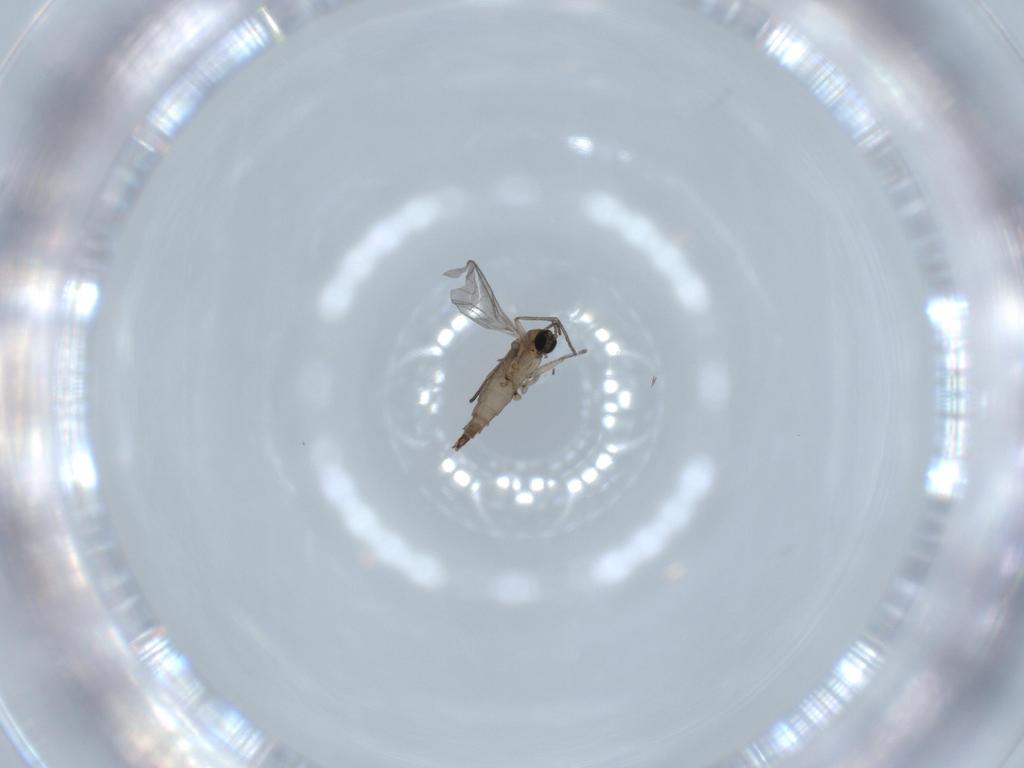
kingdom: Animalia
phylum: Arthropoda
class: Insecta
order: Diptera
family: Sciaridae
